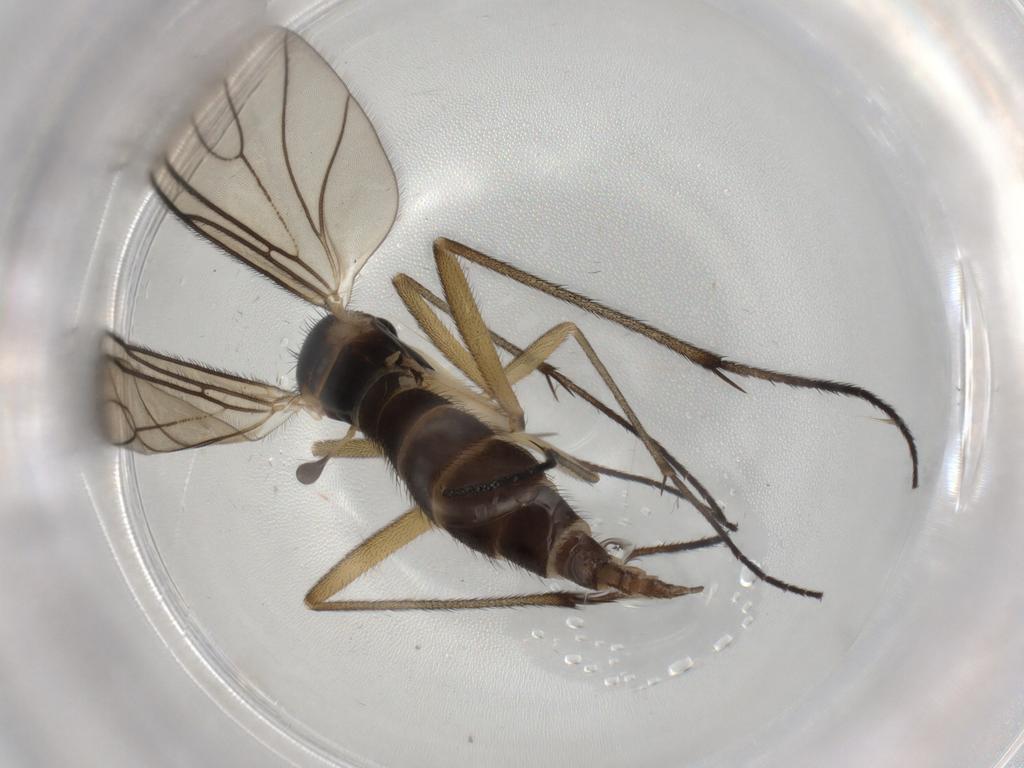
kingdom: Animalia
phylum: Arthropoda
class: Insecta
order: Diptera
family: Sciaridae
